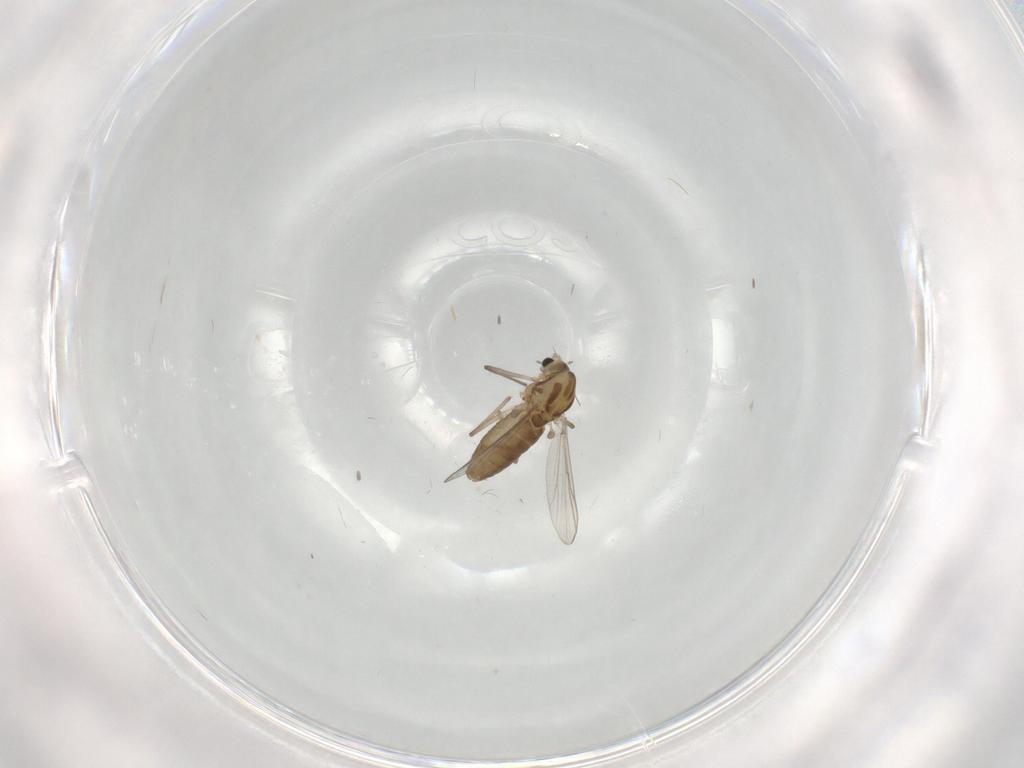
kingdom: Animalia
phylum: Arthropoda
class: Insecta
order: Diptera
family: Chironomidae
